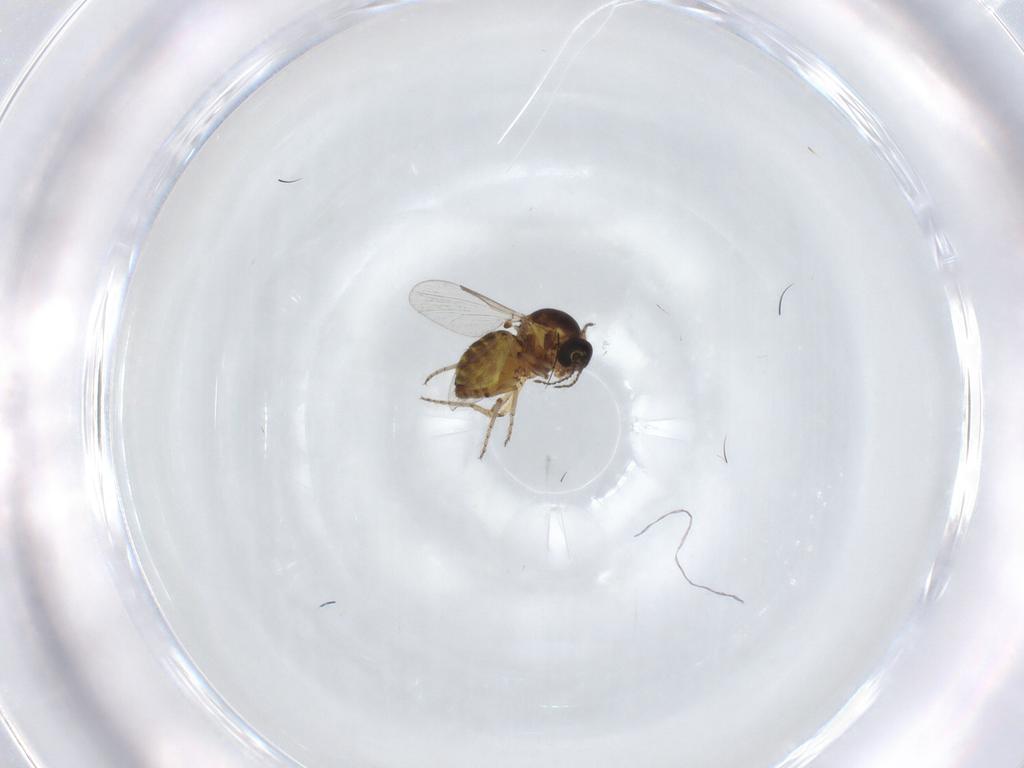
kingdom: Animalia
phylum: Arthropoda
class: Insecta
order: Diptera
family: Ceratopogonidae
